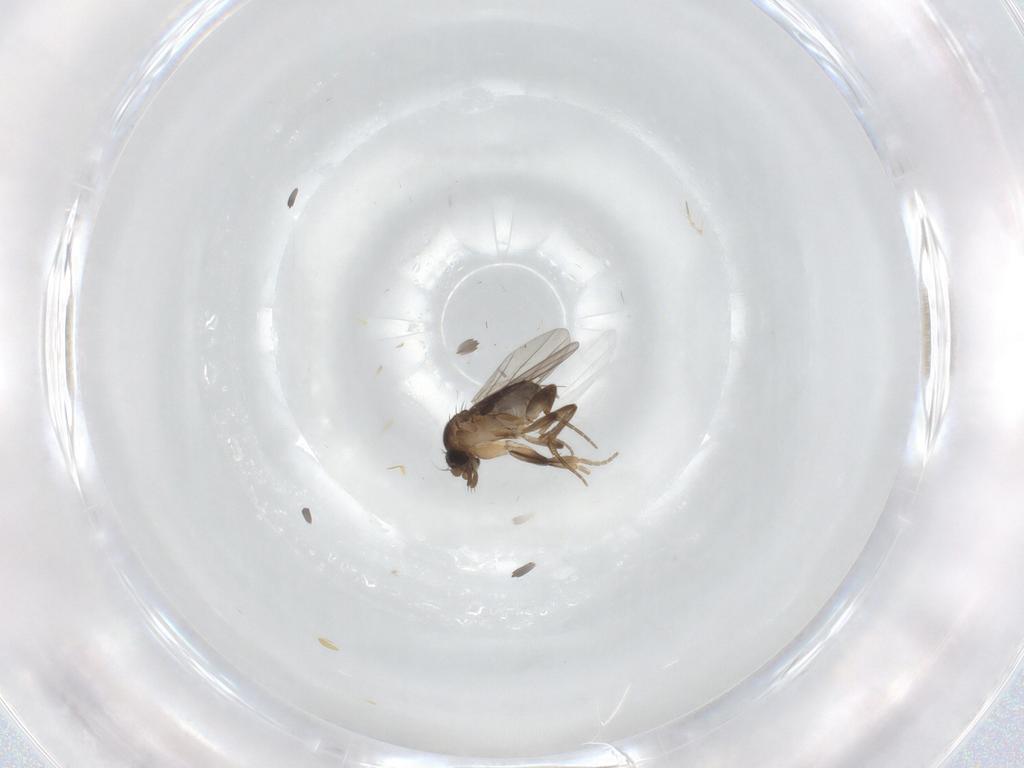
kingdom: Animalia
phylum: Arthropoda
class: Insecta
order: Diptera
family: Phoridae
